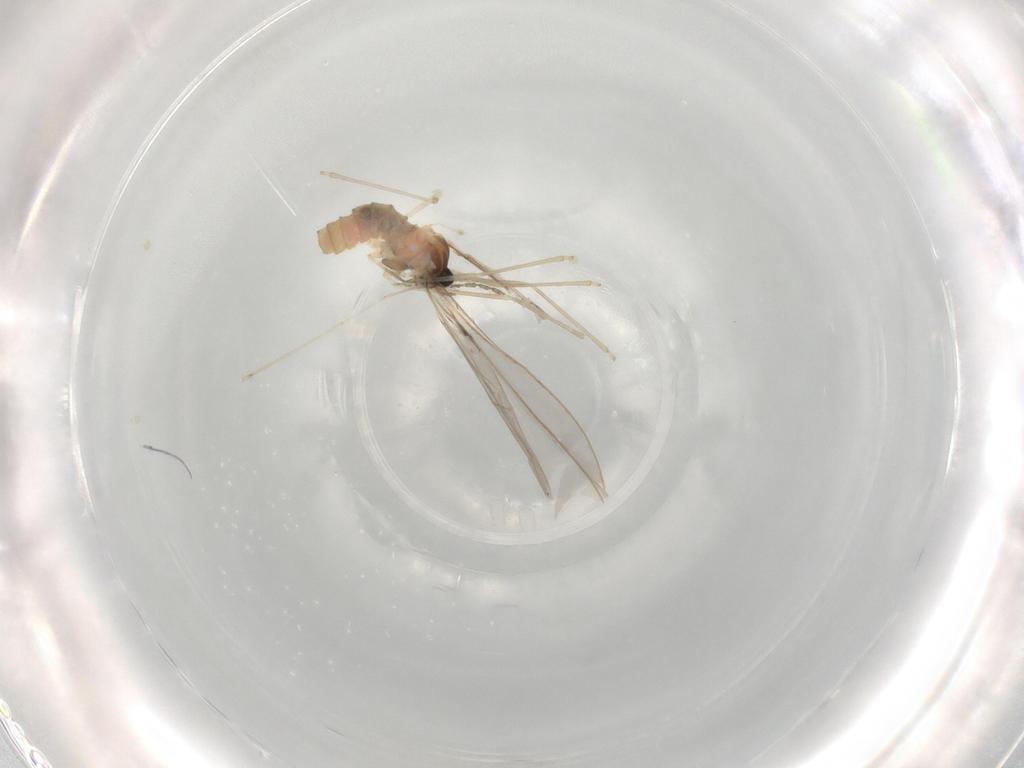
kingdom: Animalia
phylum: Arthropoda
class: Insecta
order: Diptera
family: Cecidomyiidae
